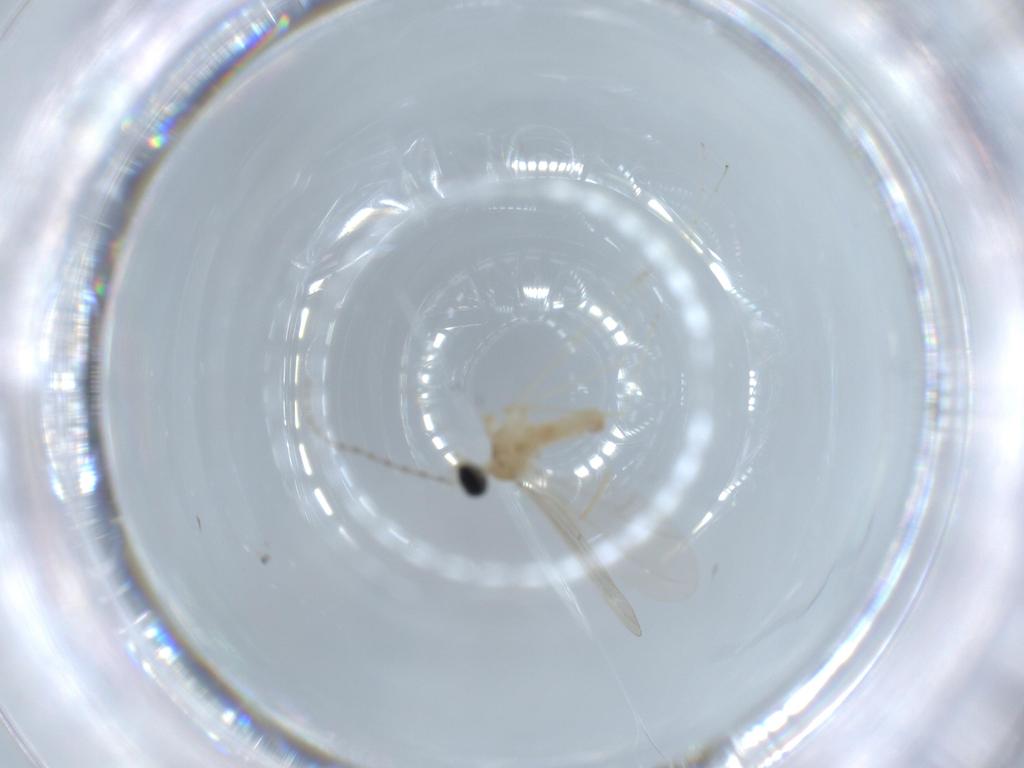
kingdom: Animalia
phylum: Arthropoda
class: Insecta
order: Diptera
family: Cecidomyiidae
